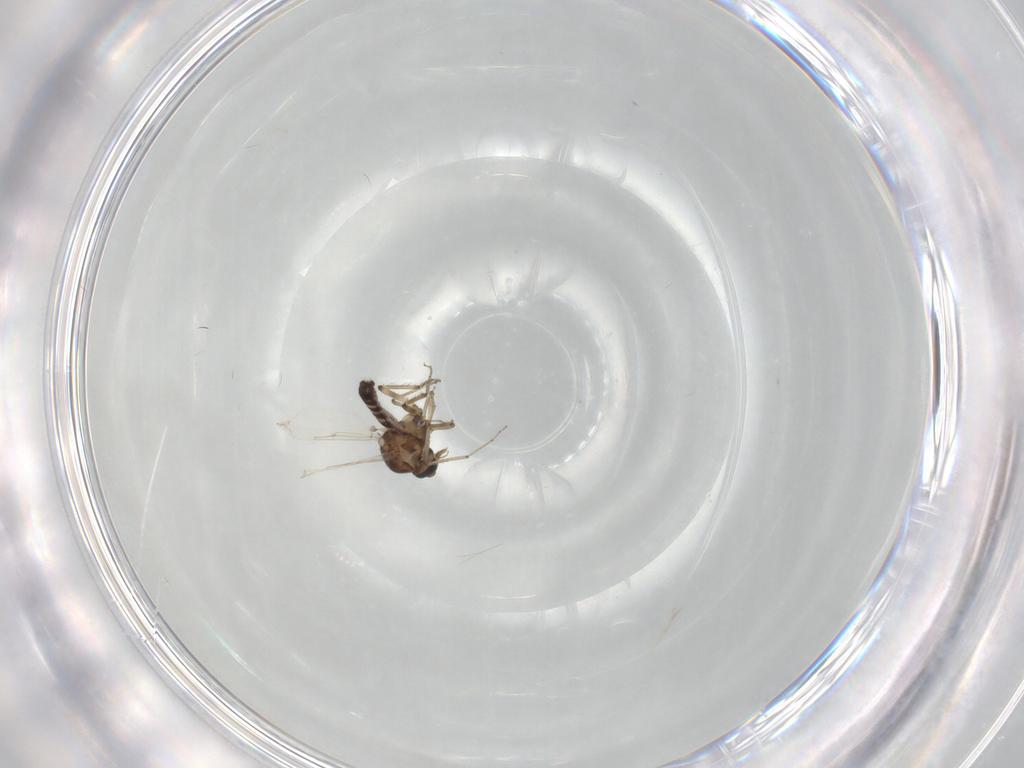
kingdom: Animalia
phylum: Arthropoda
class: Insecta
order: Diptera
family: Ceratopogonidae
